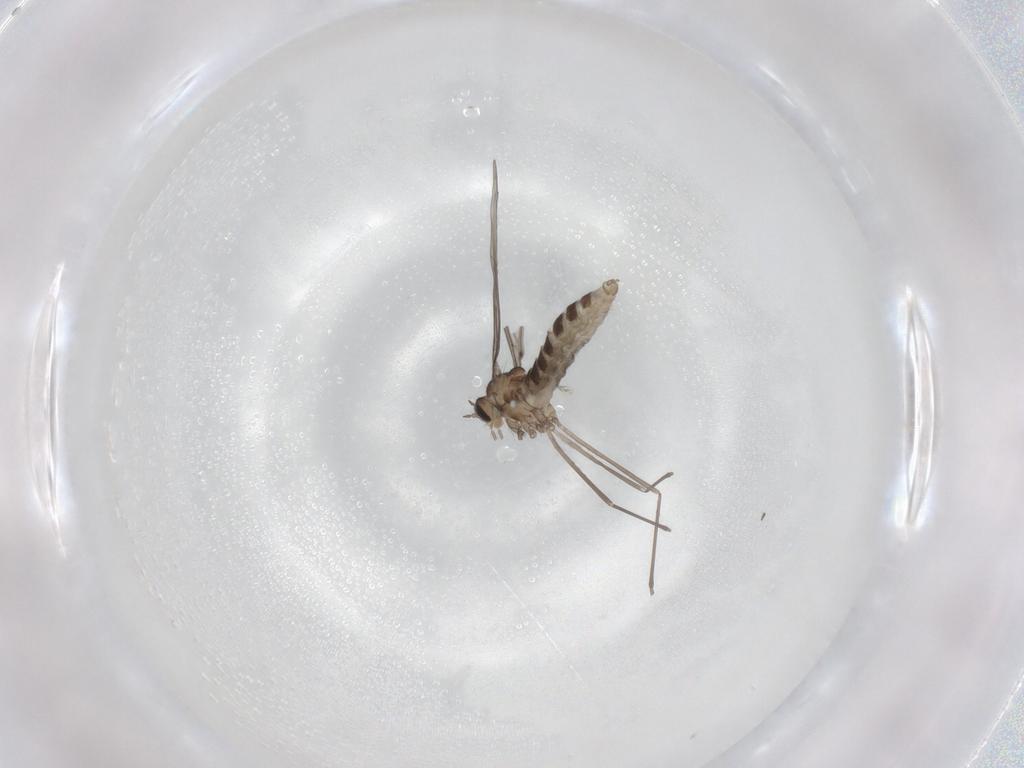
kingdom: Animalia
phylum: Arthropoda
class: Insecta
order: Diptera
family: Cecidomyiidae
